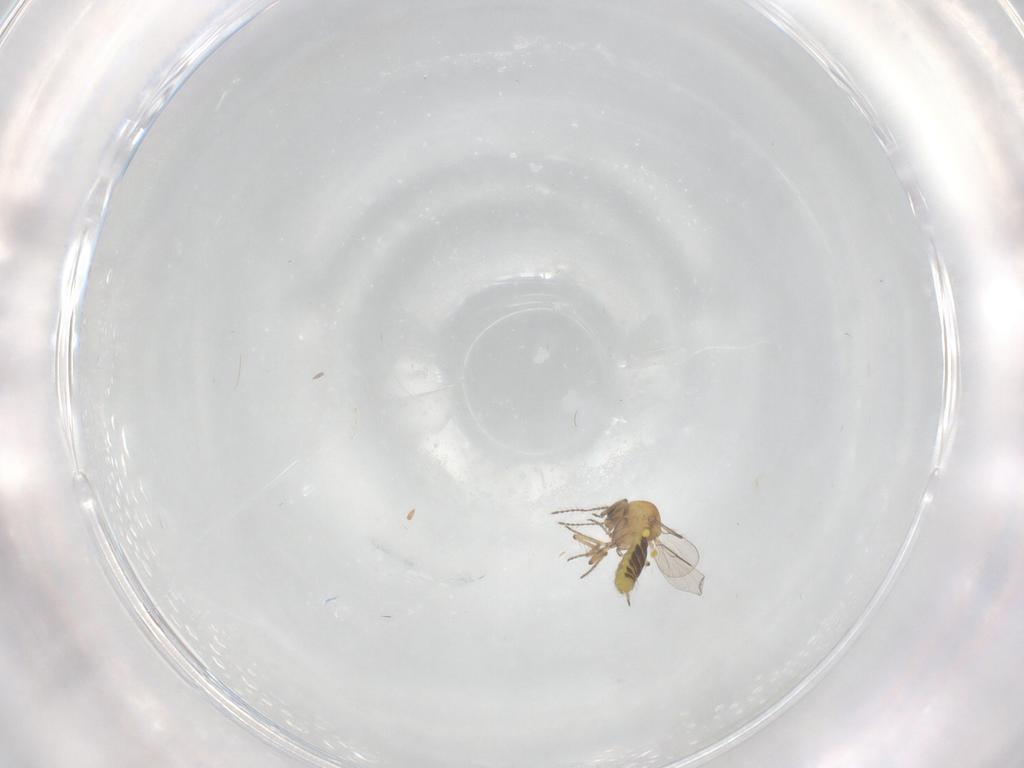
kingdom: Animalia
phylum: Arthropoda
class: Insecta
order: Diptera
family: Ceratopogonidae
